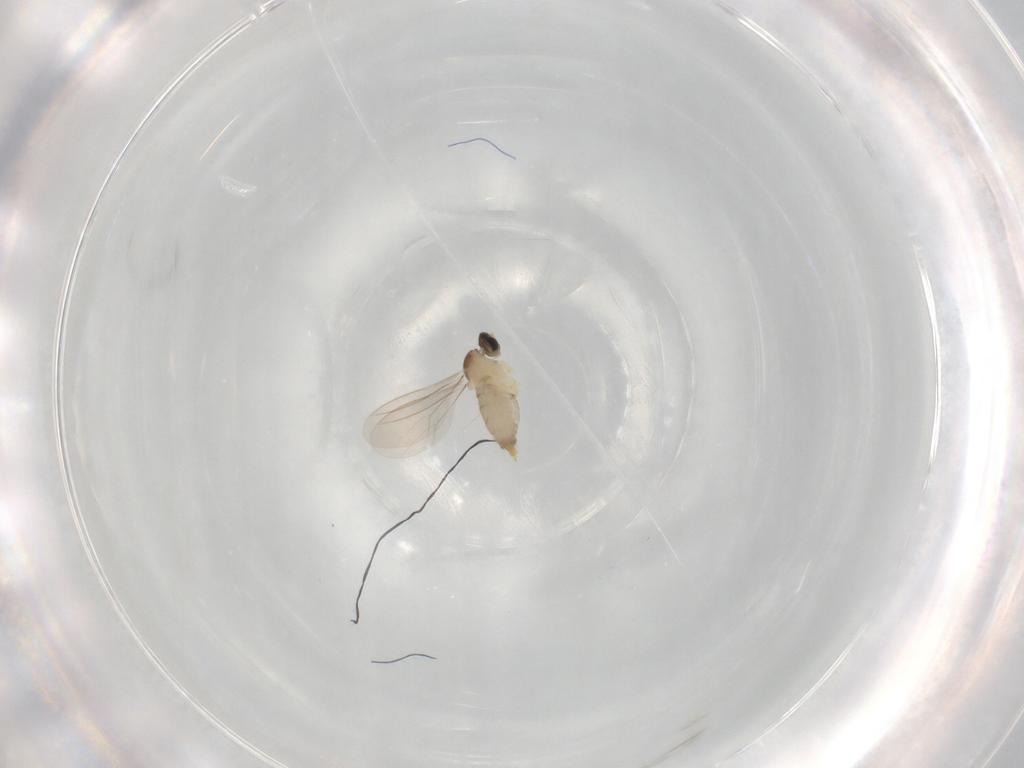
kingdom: Animalia
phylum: Arthropoda
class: Insecta
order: Diptera
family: Cecidomyiidae
